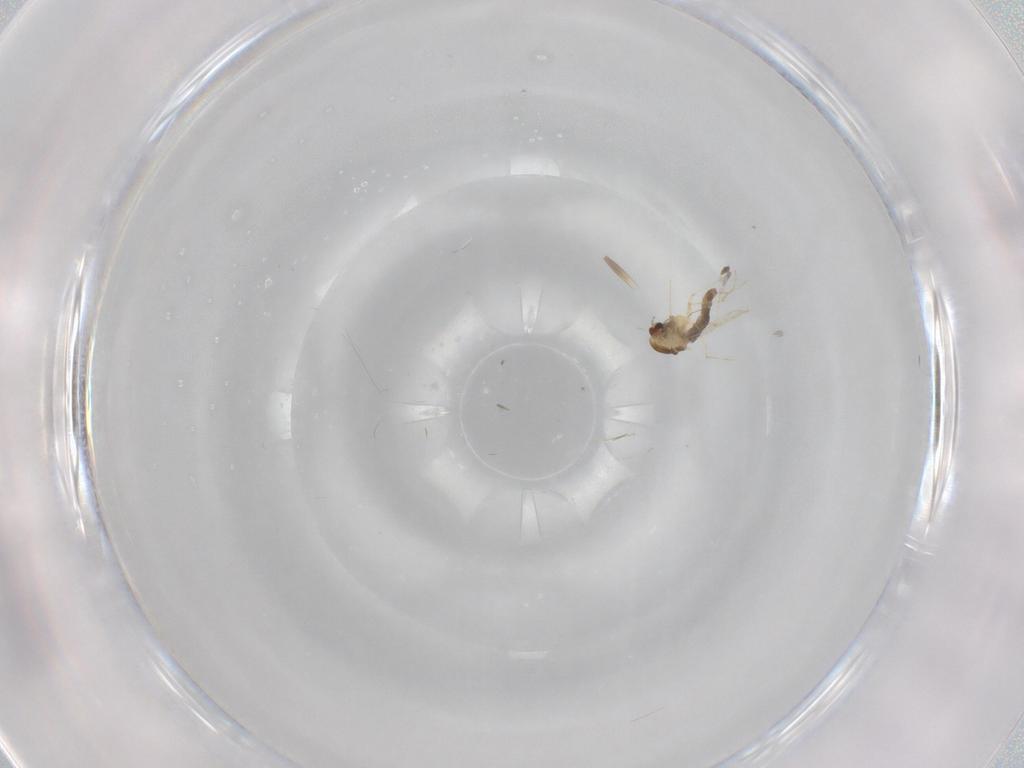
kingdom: Animalia
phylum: Arthropoda
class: Insecta
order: Diptera
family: Chironomidae
